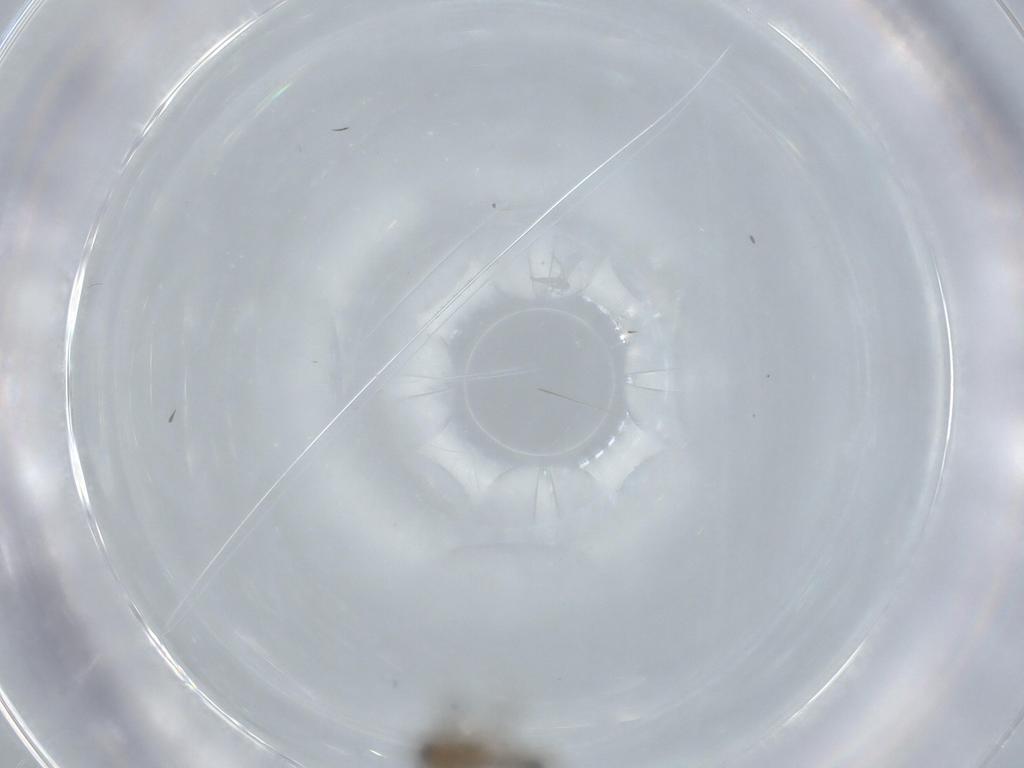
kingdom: Animalia
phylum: Arthropoda
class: Insecta
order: Diptera
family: Chironomidae
